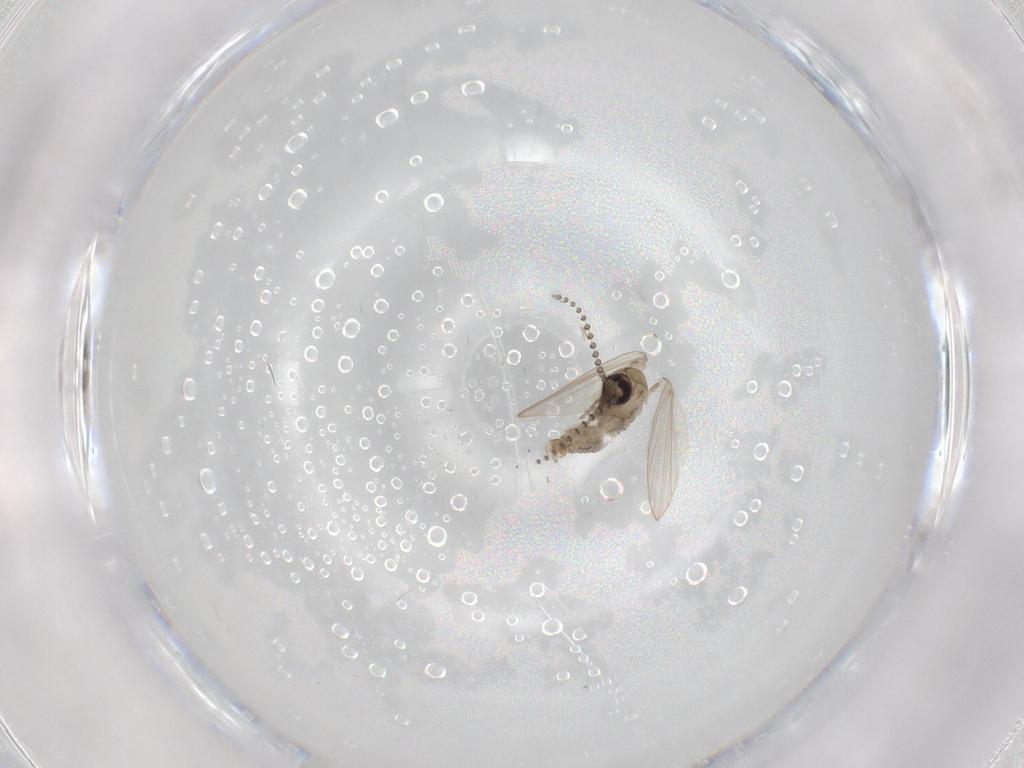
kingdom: Animalia
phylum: Arthropoda
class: Insecta
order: Diptera
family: Psychodidae
